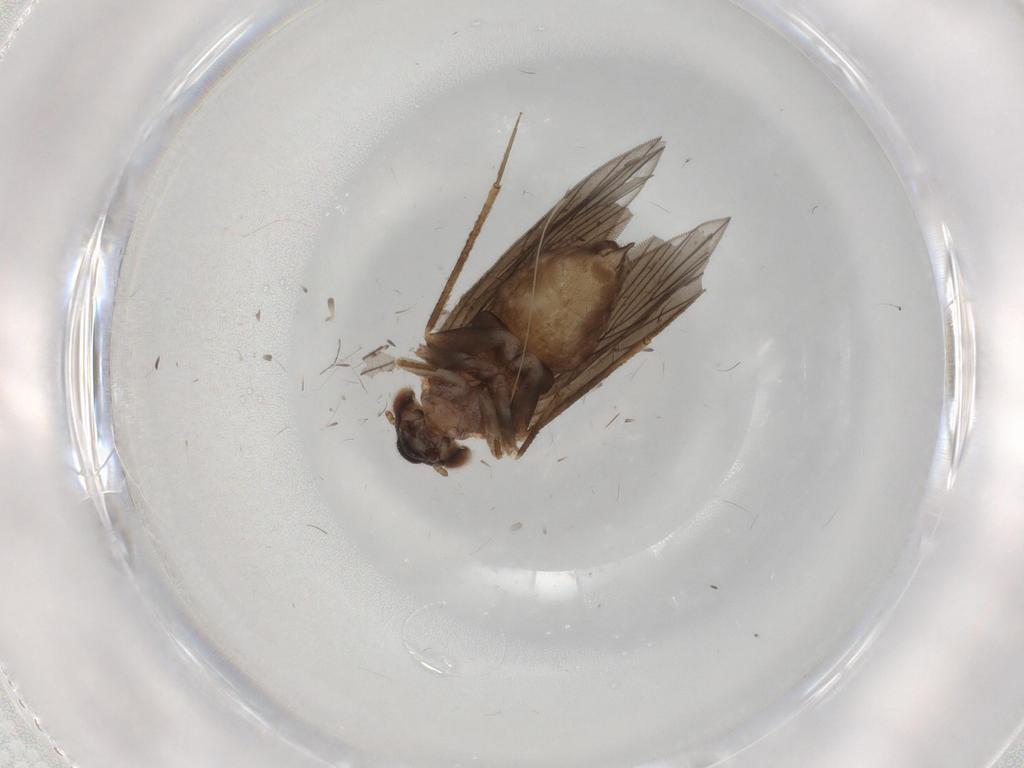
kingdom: Animalia
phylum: Arthropoda
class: Insecta
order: Psocodea
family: Lepidopsocidae
